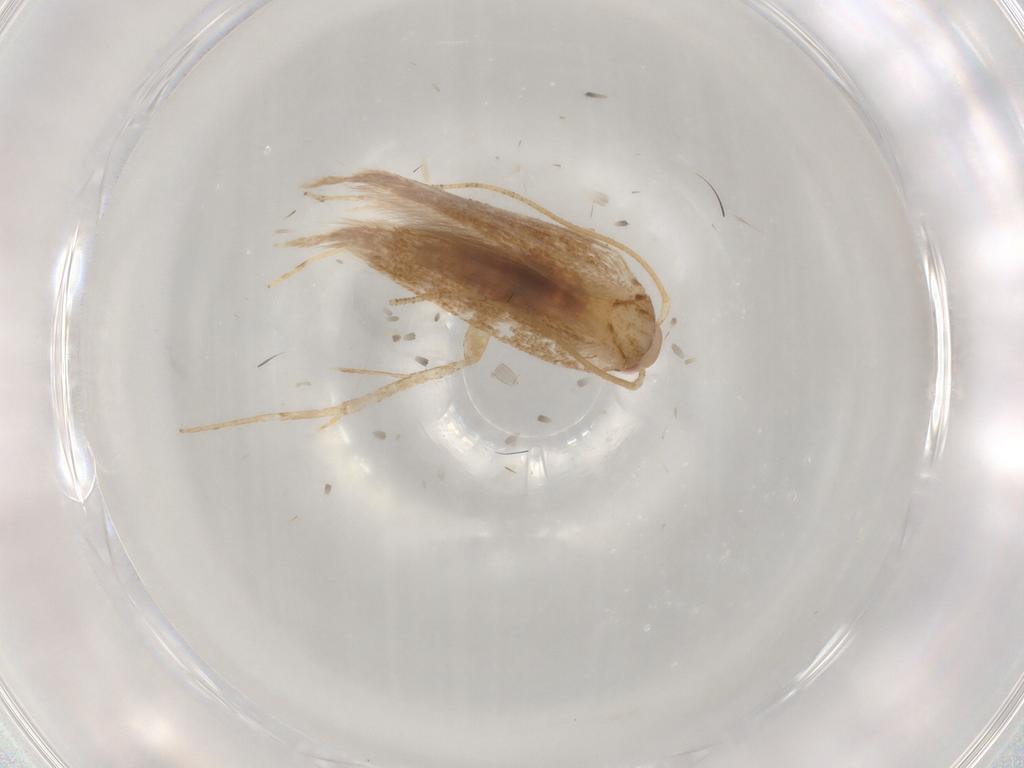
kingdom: Animalia
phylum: Arthropoda
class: Insecta
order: Lepidoptera
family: Cosmopterigidae
